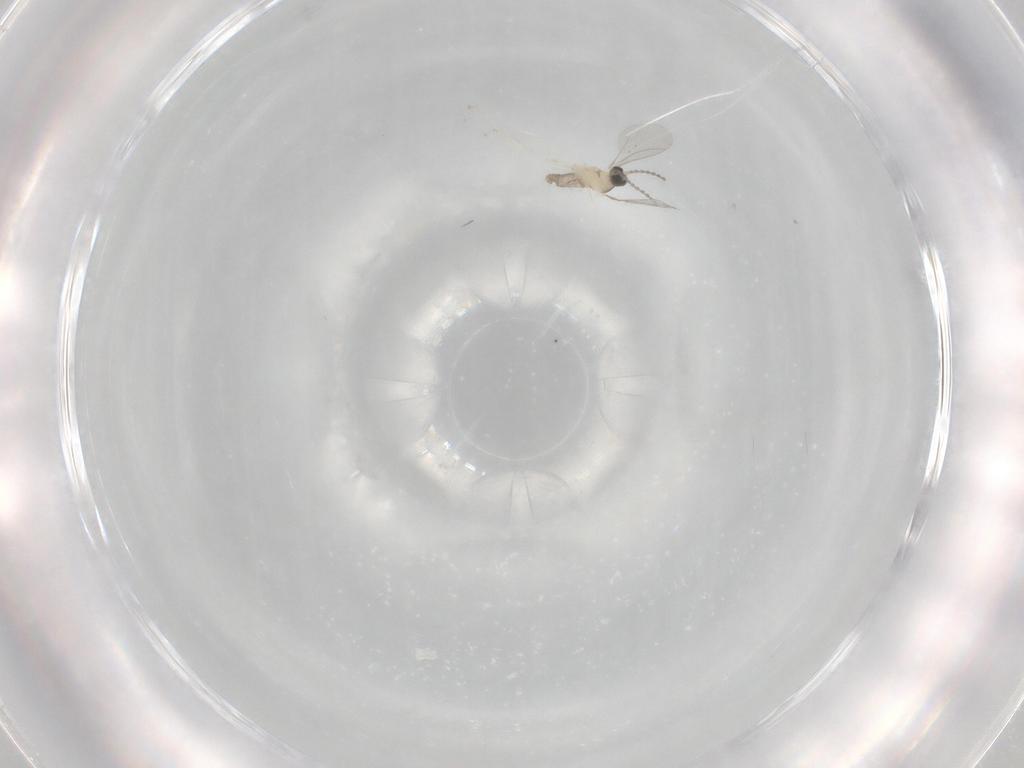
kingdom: Animalia
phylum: Arthropoda
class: Insecta
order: Diptera
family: Cecidomyiidae
